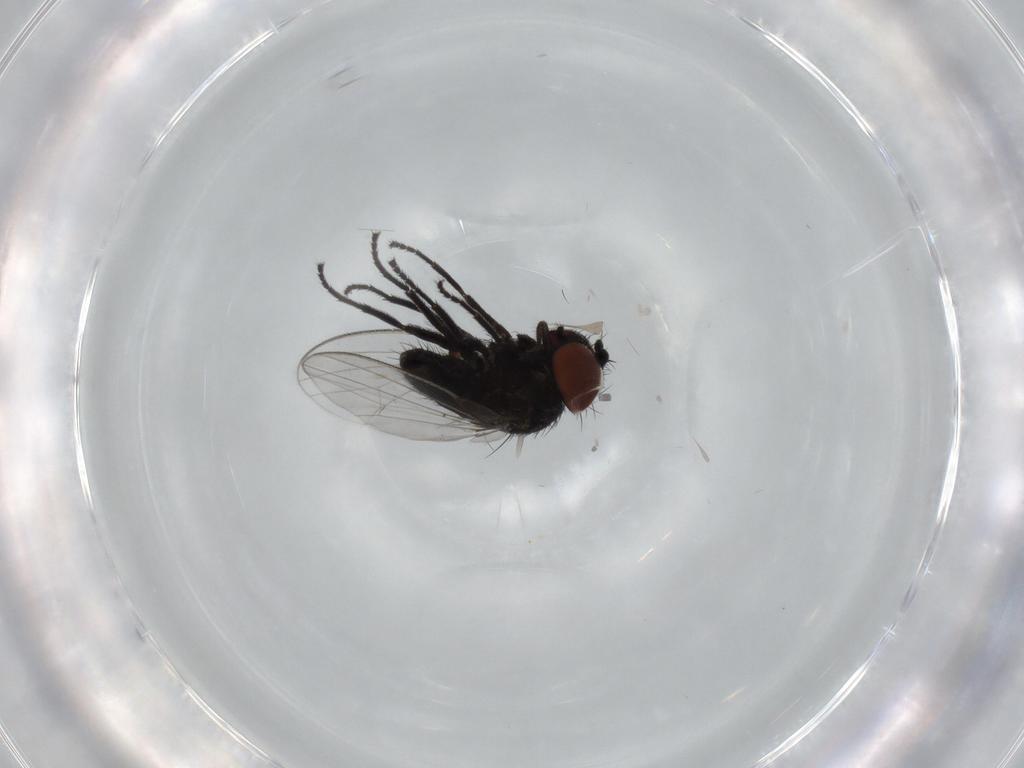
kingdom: Animalia
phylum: Arthropoda
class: Insecta
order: Diptera
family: Milichiidae
